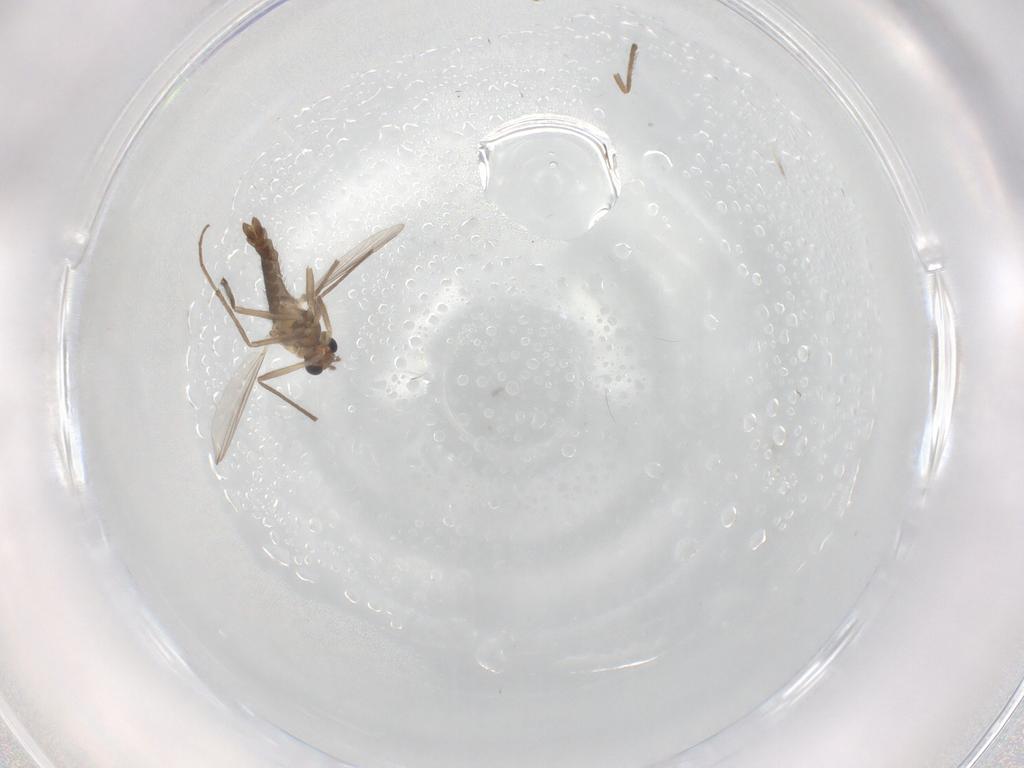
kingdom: Animalia
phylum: Arthropoda
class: Insecta
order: Diptera
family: Chironomidae
